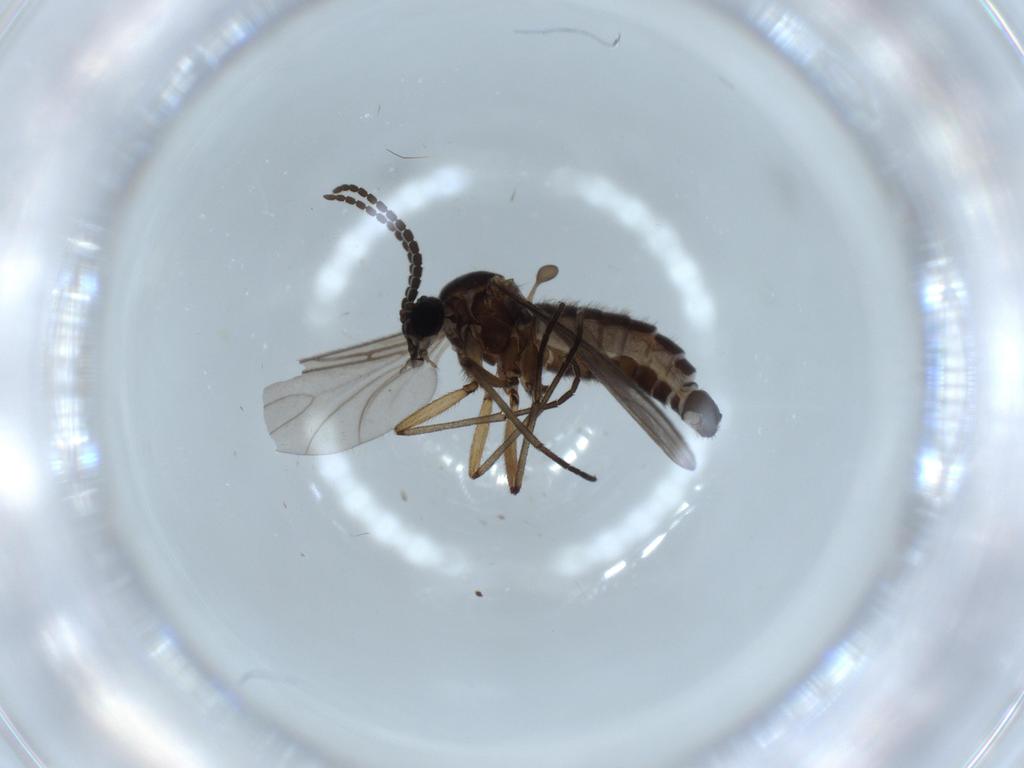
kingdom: Animalia
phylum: Arthropoda
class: Insecta
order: Diptera
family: Sciaridae
